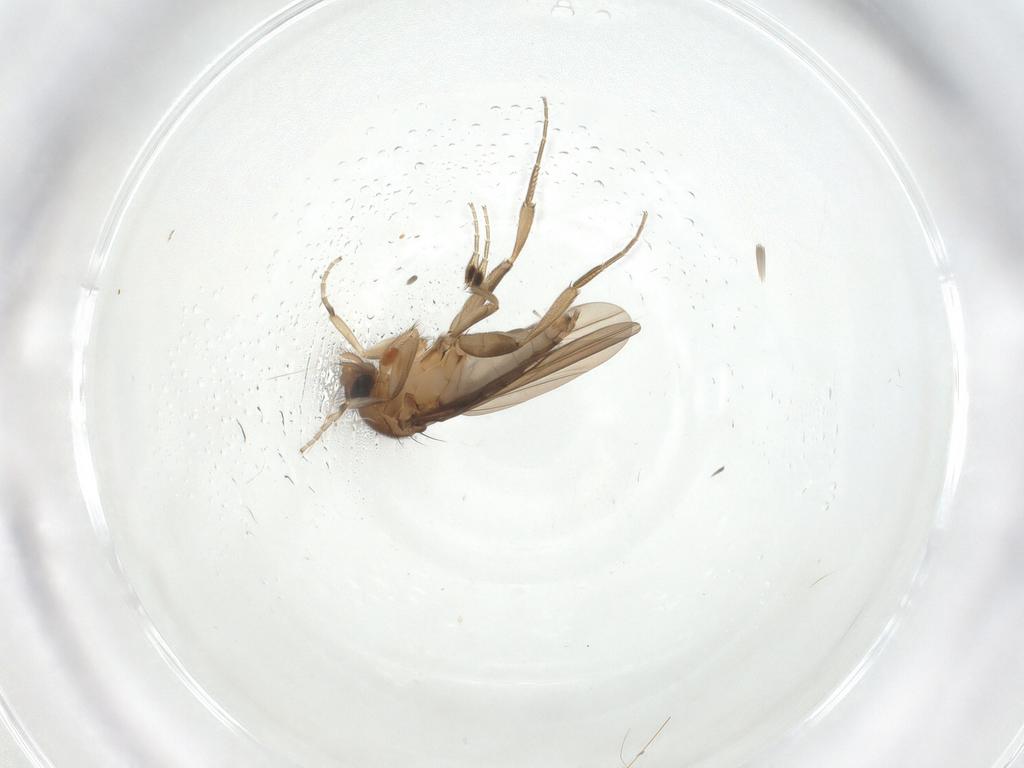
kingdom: Animalia
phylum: Arthropoda
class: Insecta
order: Diptera
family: Phoridae
